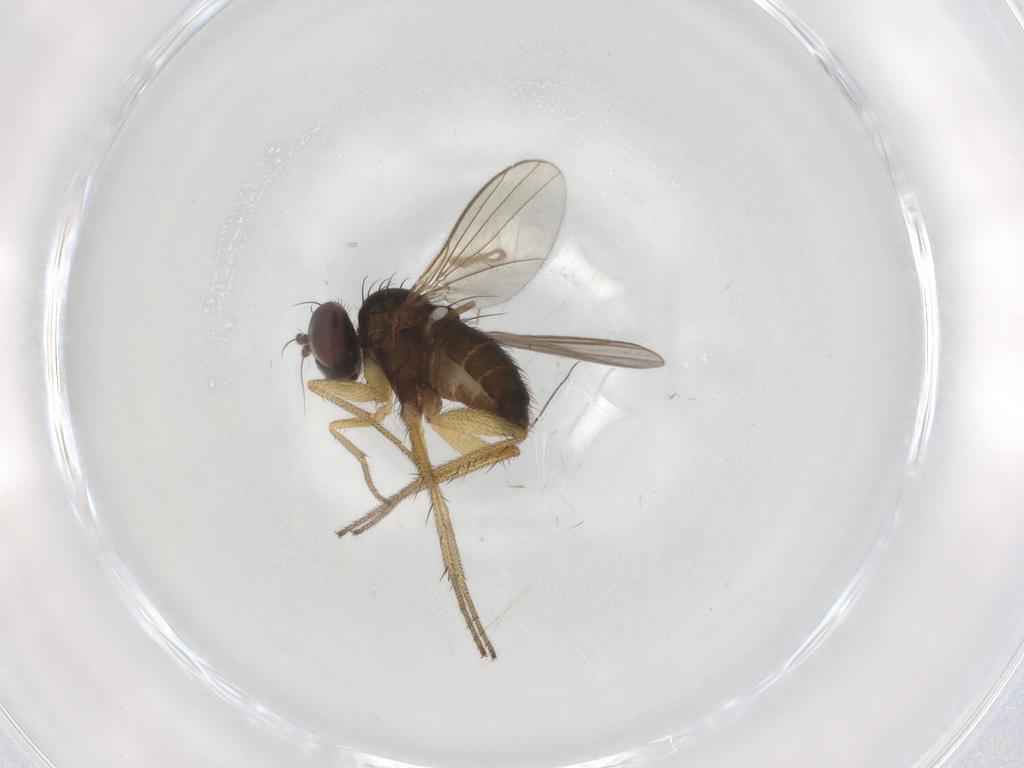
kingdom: Animalia
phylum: Arthropoda
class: Insecta
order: Diptera
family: Dolichopodidae
